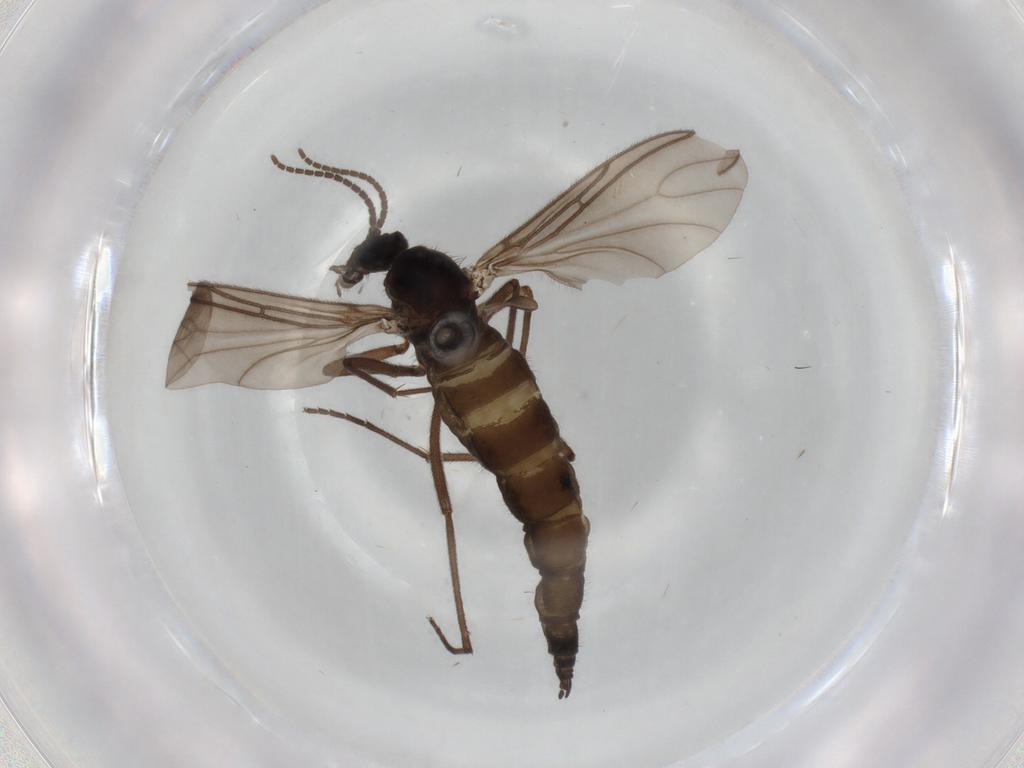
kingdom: Animalia
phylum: Arthropoda
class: Insecta
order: Diptera
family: Sciaridae
